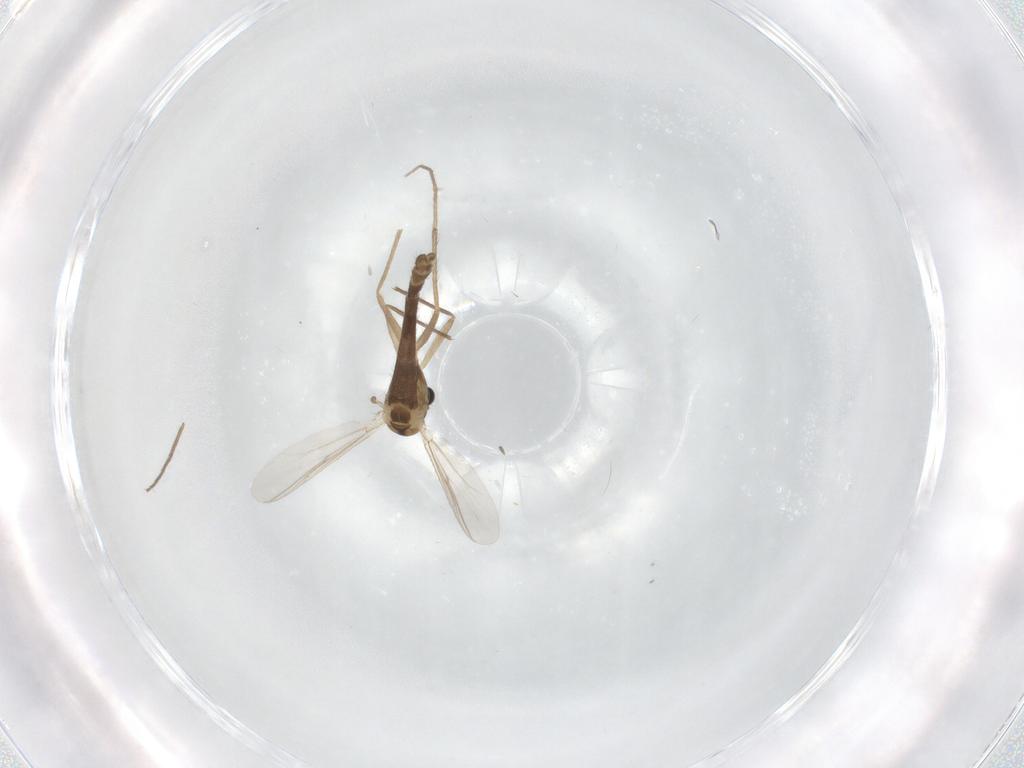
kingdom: Animalia
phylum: Arthropoda
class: Insecta
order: Diptera
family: Chironomidae
